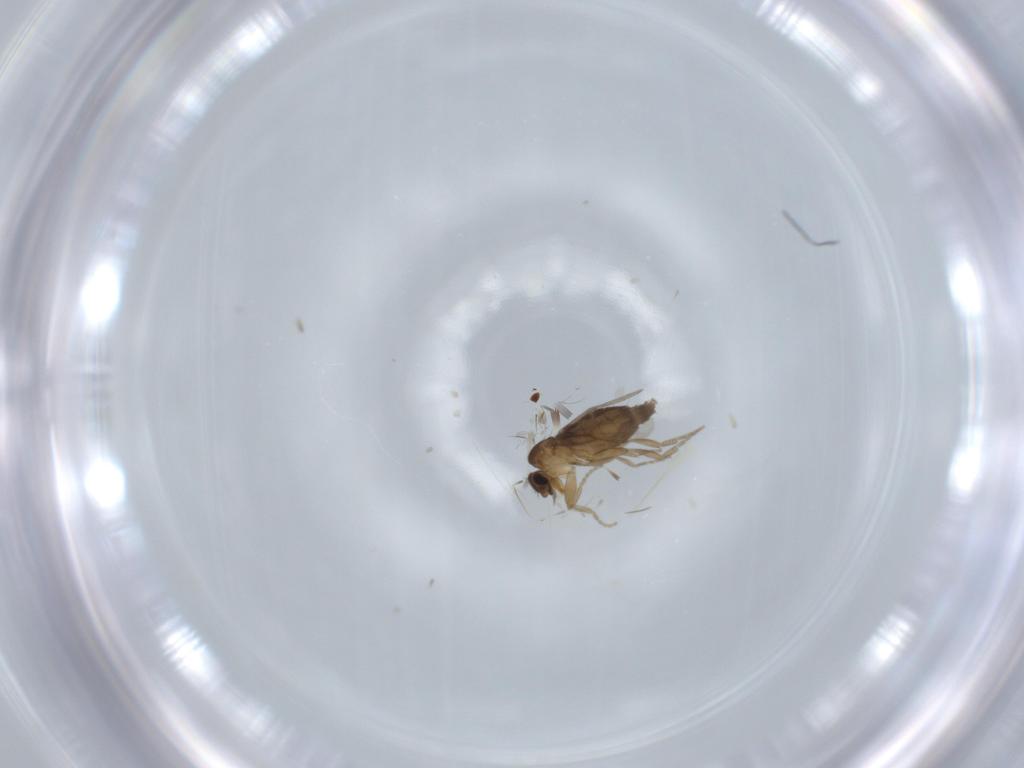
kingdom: Animalia
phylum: Arthropoda
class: Insecta
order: Diptera
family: Phoridae
